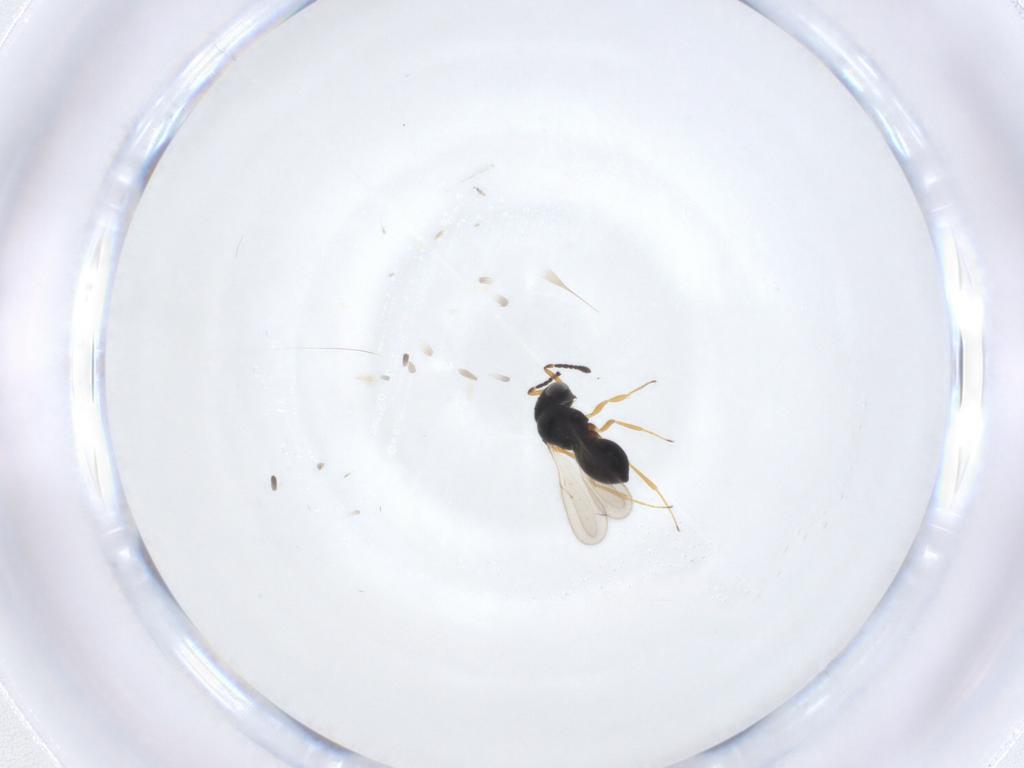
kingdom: Animalia
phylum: Arthropoda
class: Insecta
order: Hymenoptera
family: Scelionidae
